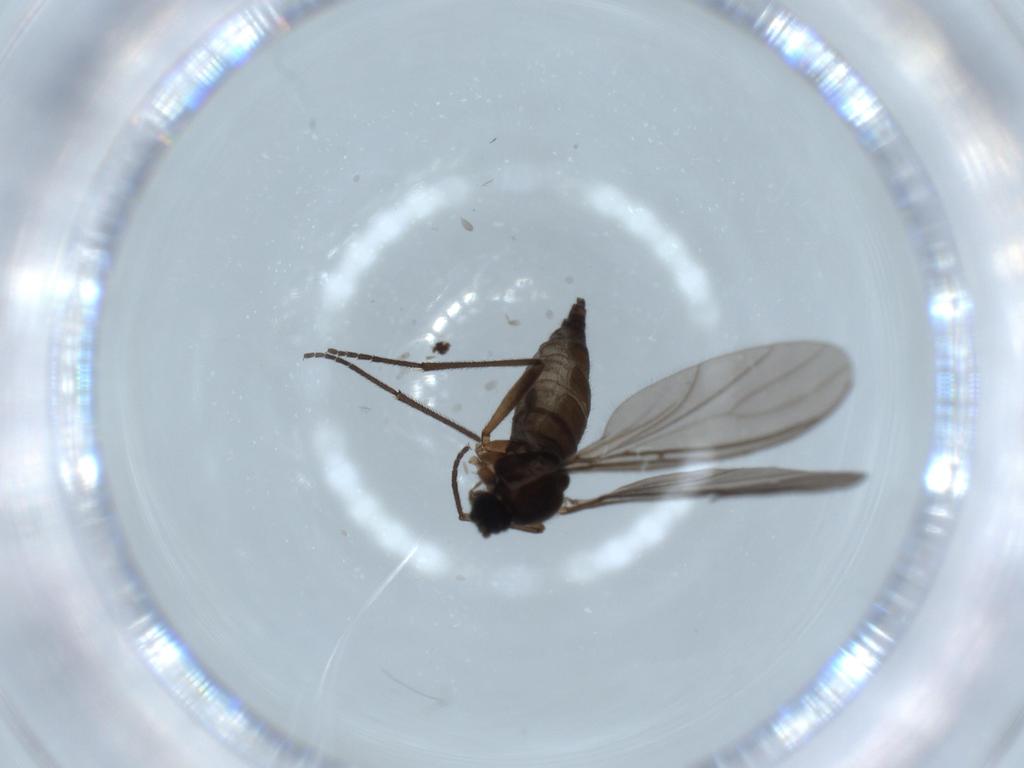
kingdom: Animalia
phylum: Arthropoda
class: Insecta
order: Diptera
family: Sciaridae
